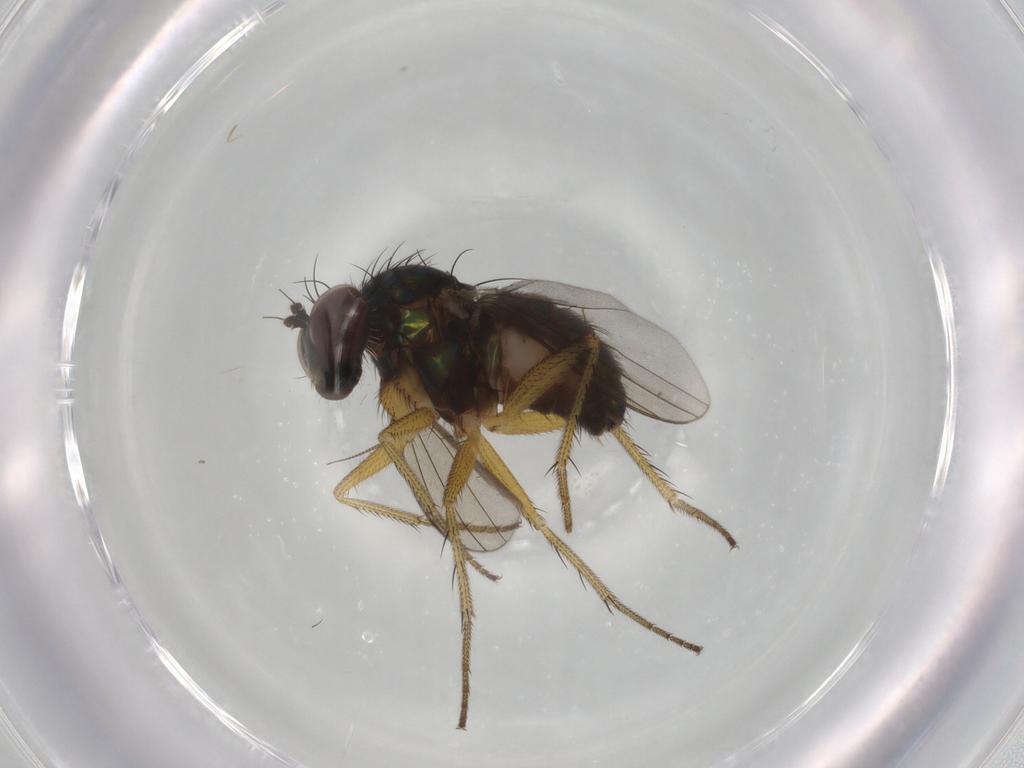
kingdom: Animalia
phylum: Arthropoda
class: Insecta
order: Diptera
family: Dolichopodidae
